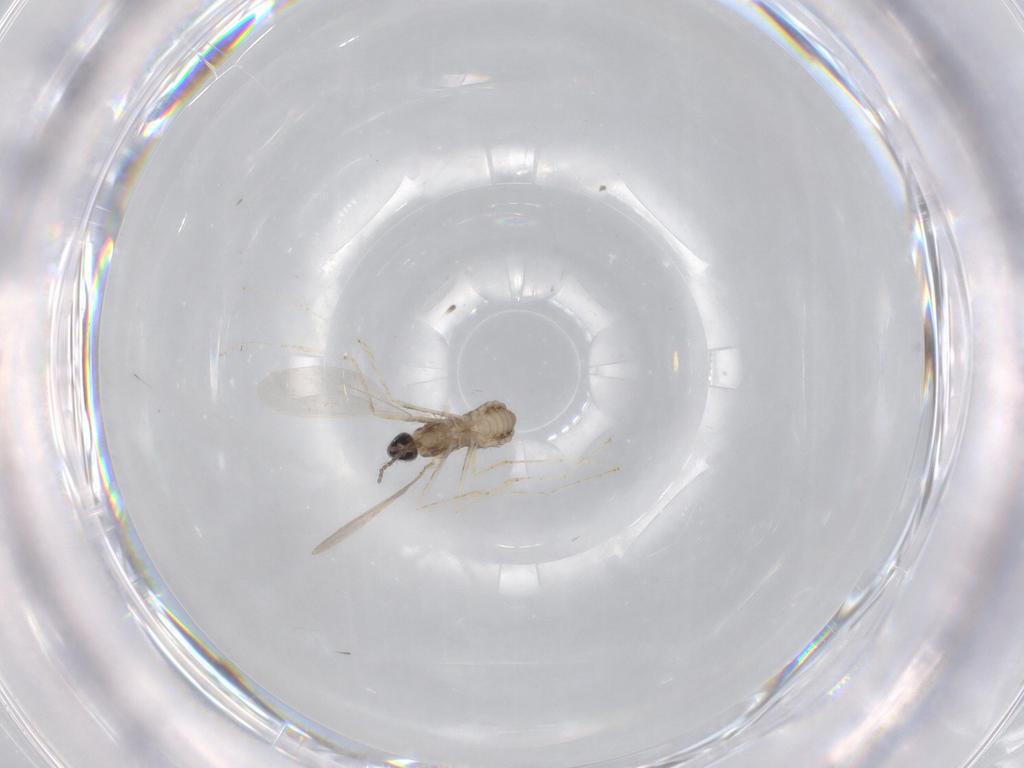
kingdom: Animalia
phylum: Arthropoda
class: Insecta
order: Diptera
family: Cecidomyiidae
